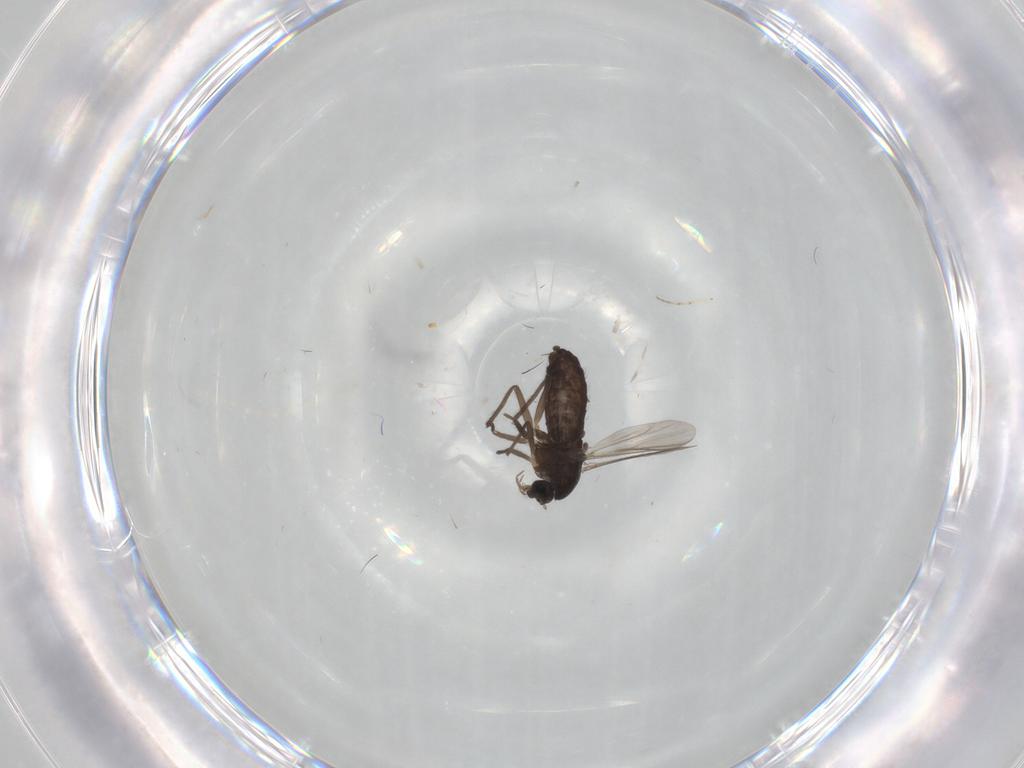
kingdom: Animalia
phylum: Arthropoda
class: Insecta
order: Diptera
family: Chironomidae
